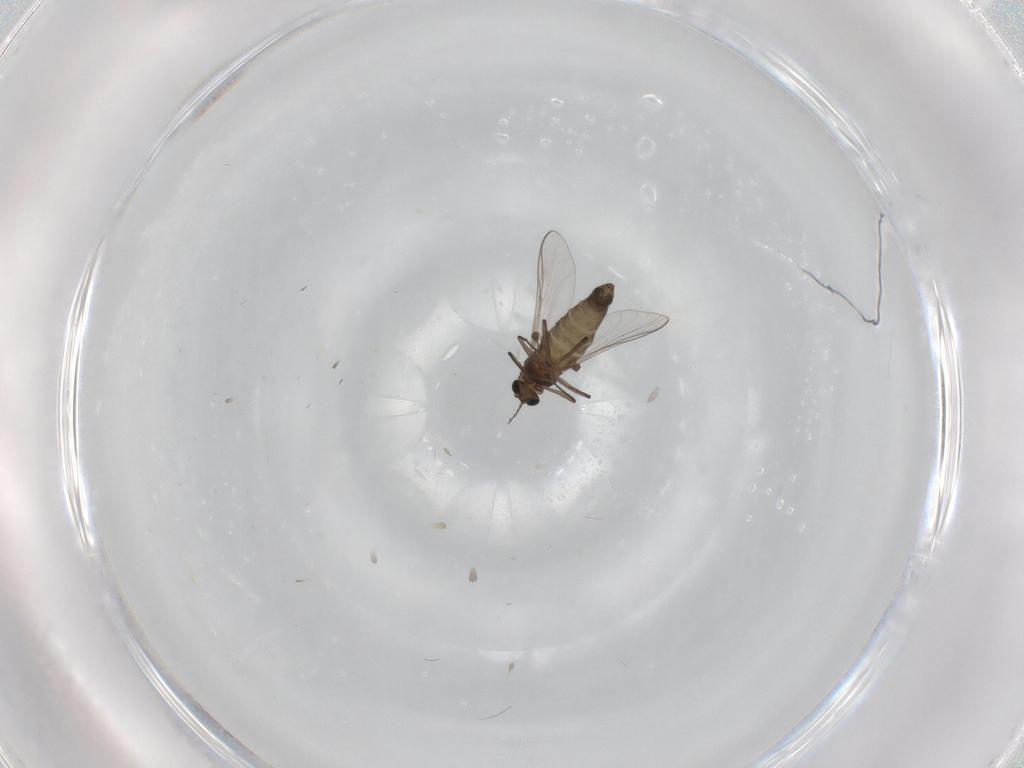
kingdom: Animalia
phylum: Arthropoda
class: Insecta
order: Diptera
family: Chironomidae
